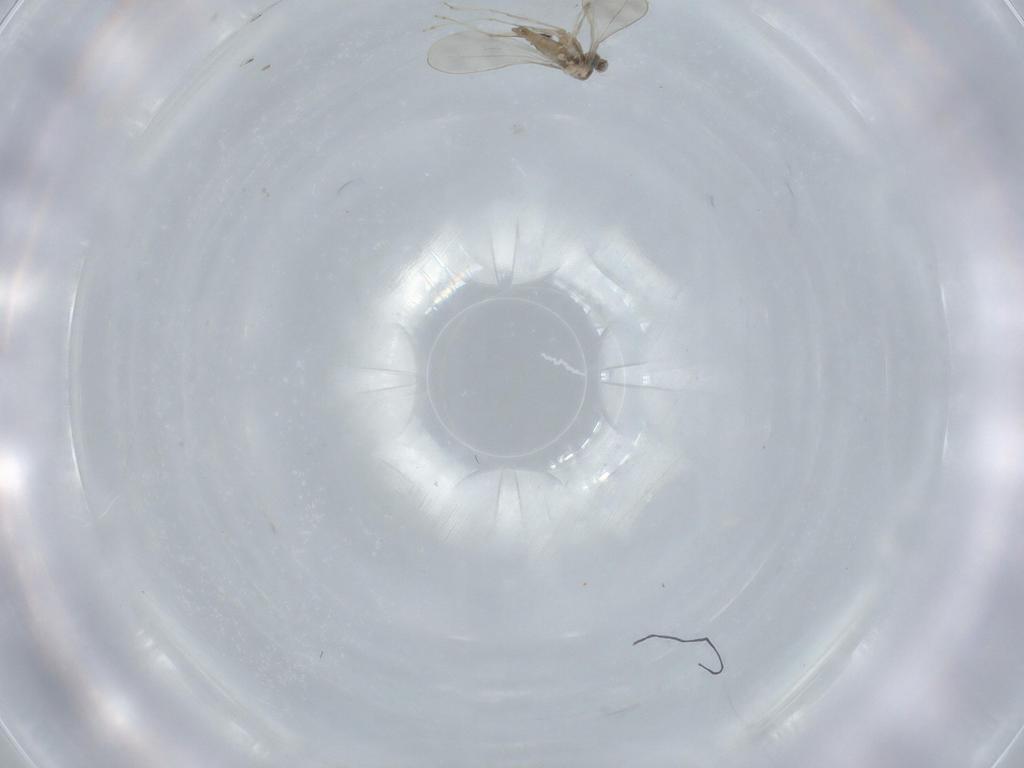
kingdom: Animalia
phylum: Arthropoda
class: Insecta
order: Diptera
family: Cecidomyiidae
